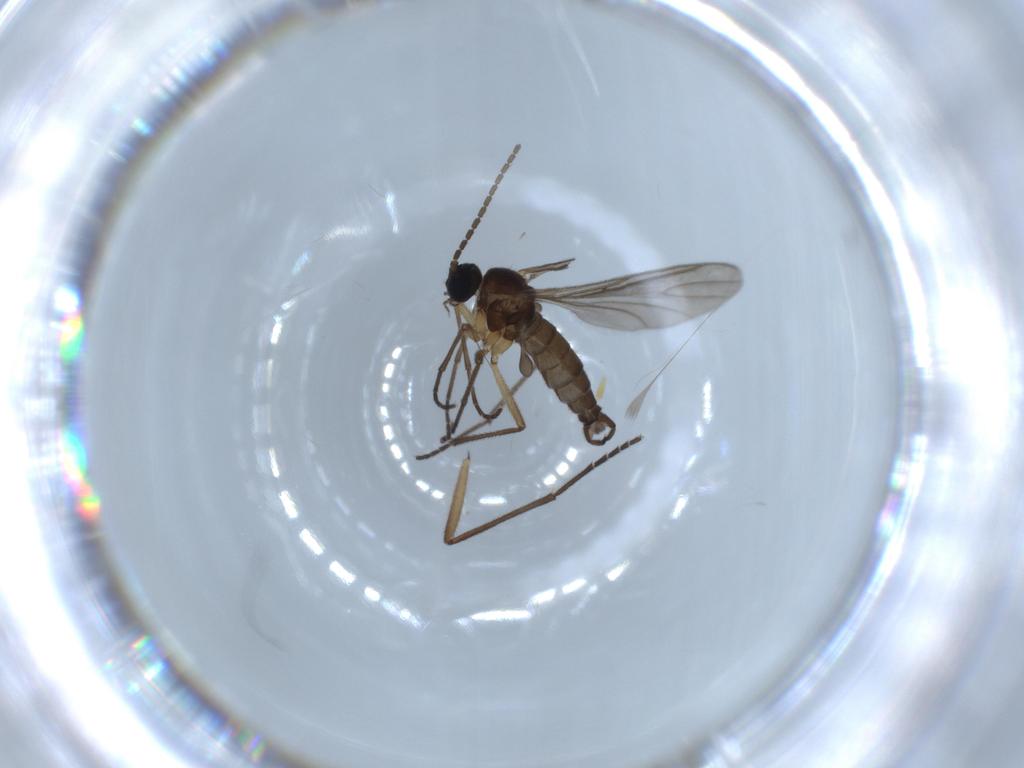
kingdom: Animalia
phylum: Arthropoda
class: Insecta
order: Diptera
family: Sciaridae
